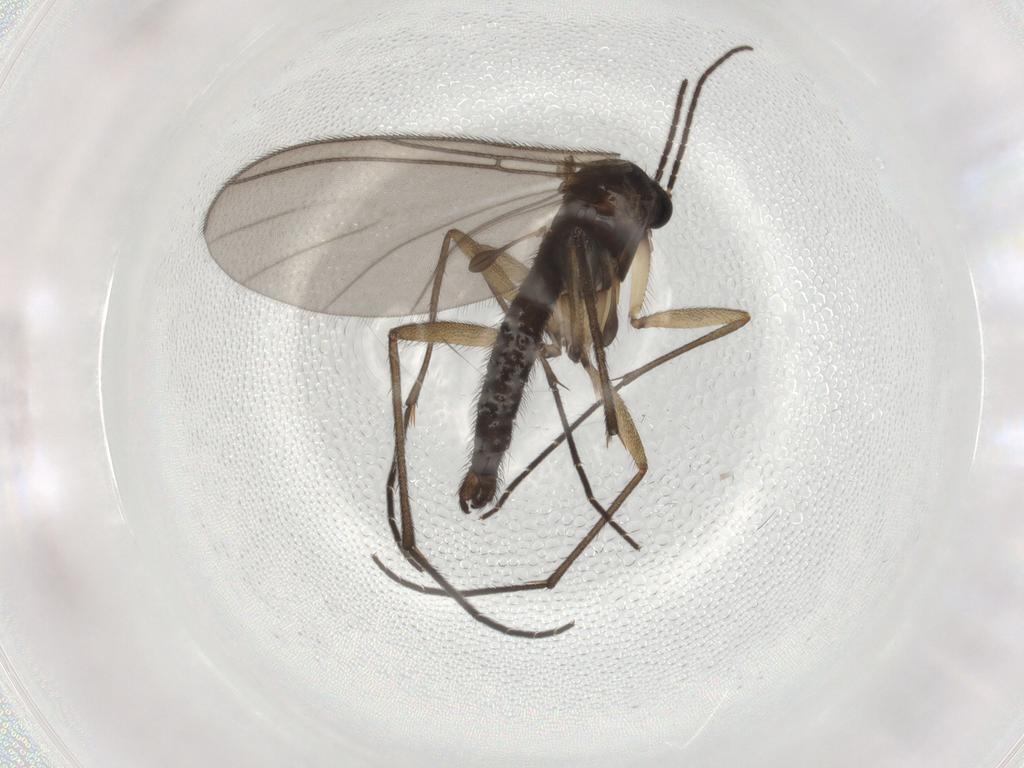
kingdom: Animalia
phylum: Arthropoda
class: Insecta
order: Diptera
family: Sciaridae
